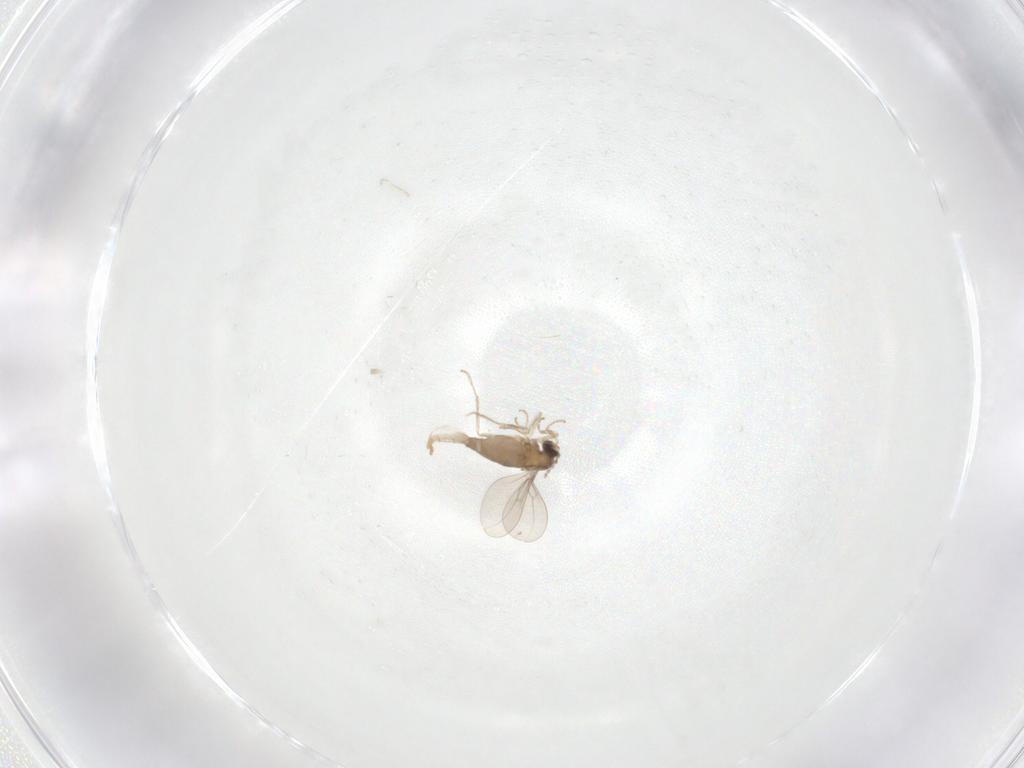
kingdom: Animalia
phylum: Arthropoda
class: Insecta
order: Diptera
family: Cecidomyiidae
